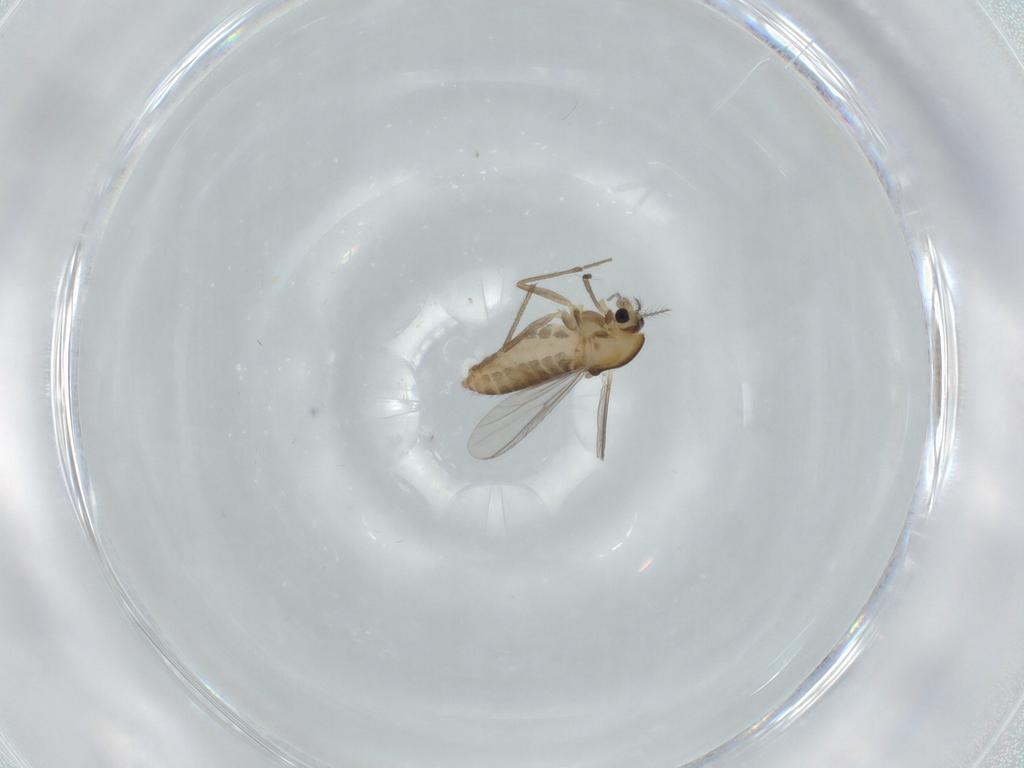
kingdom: Animalia
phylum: Arthropoda
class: Insecta
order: Diptera
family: Chironomidae
